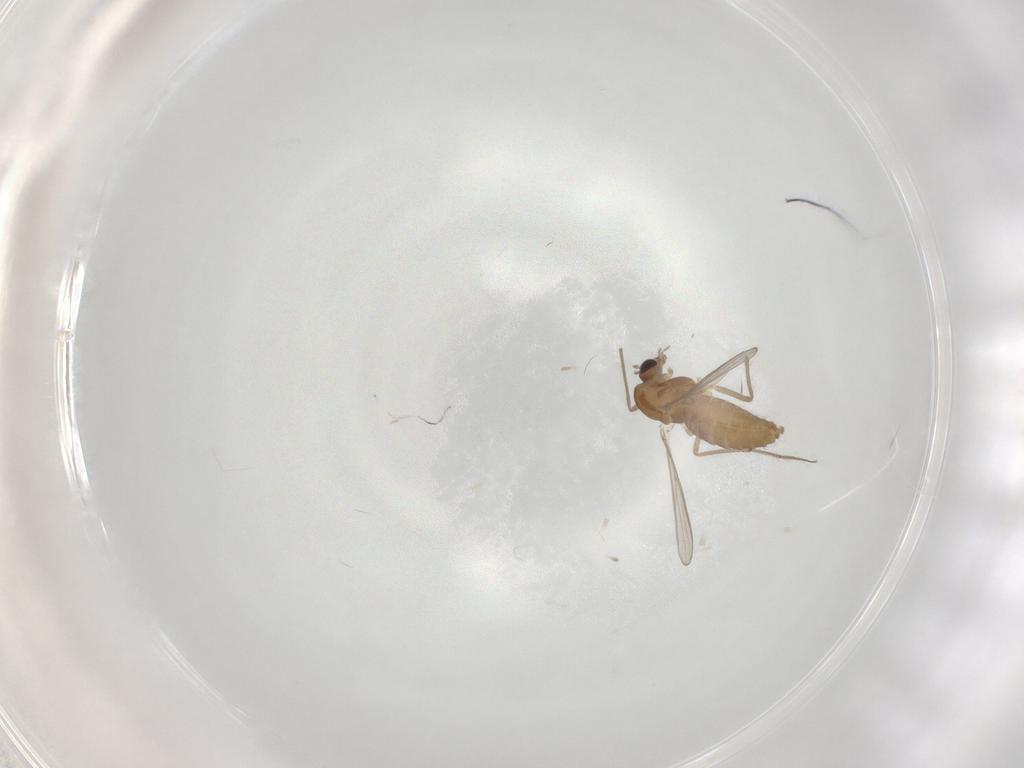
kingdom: Animalia
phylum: Arthropoda
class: Insecta
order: Diptera
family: Chironomidae
